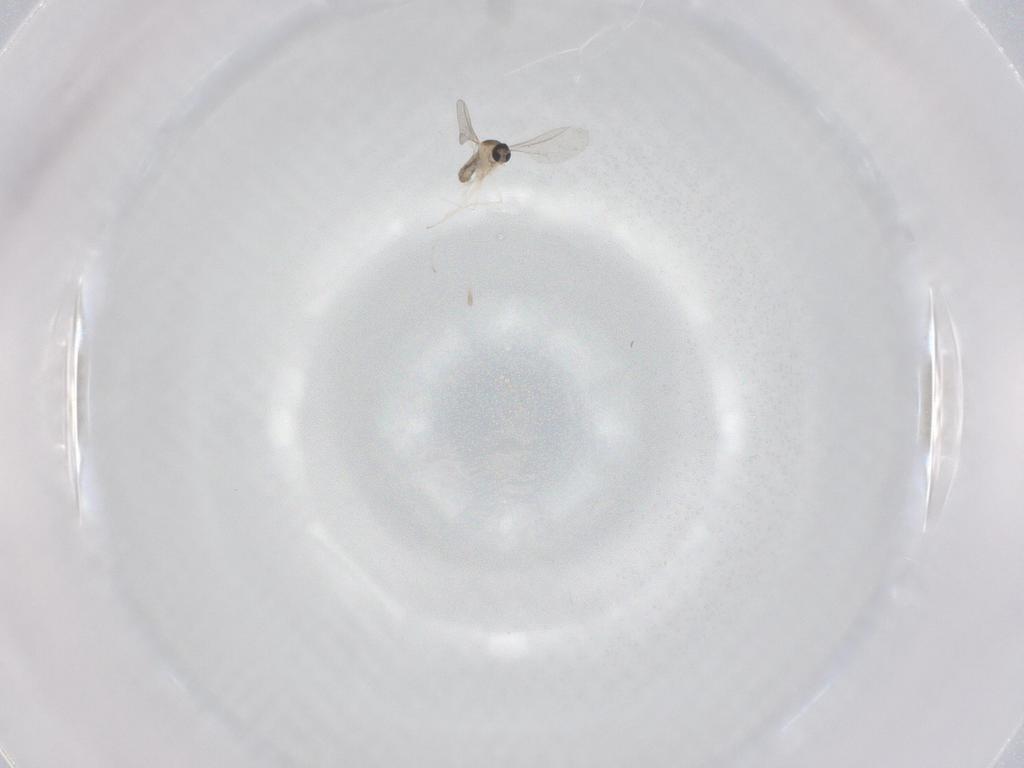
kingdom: Animalia
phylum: Arthropoda
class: Insecta
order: Diptera
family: Cecidomyiidae
